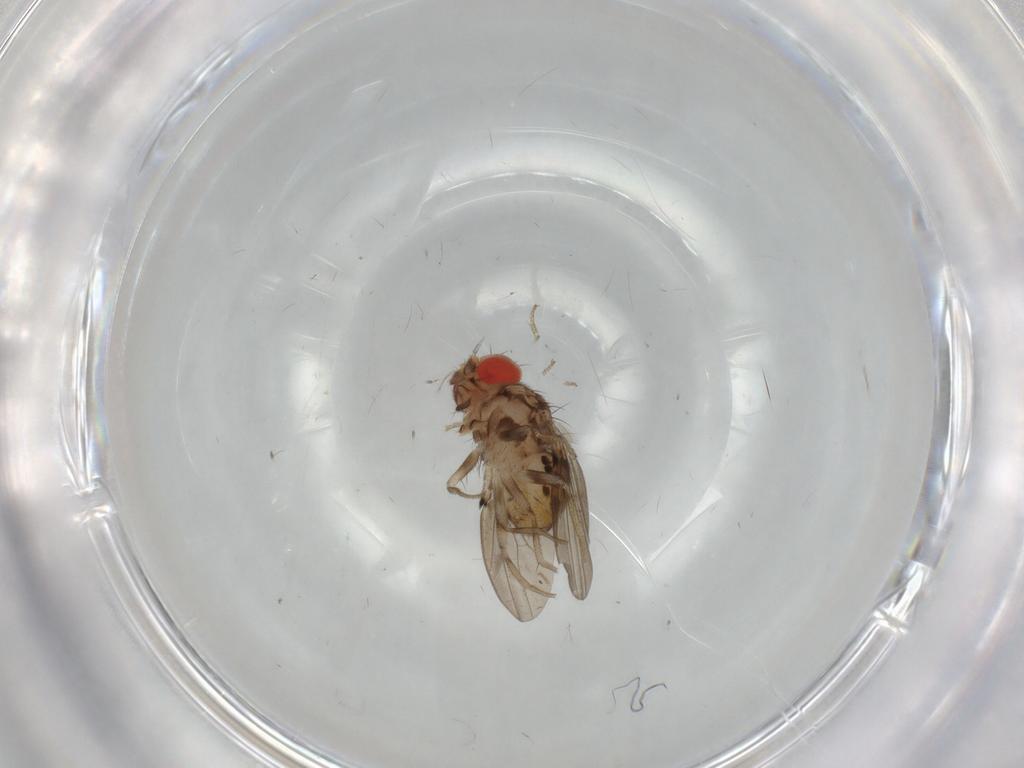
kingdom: Animalia
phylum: Arthropoda
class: Insecta
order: Diptera
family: Drosophilidae
